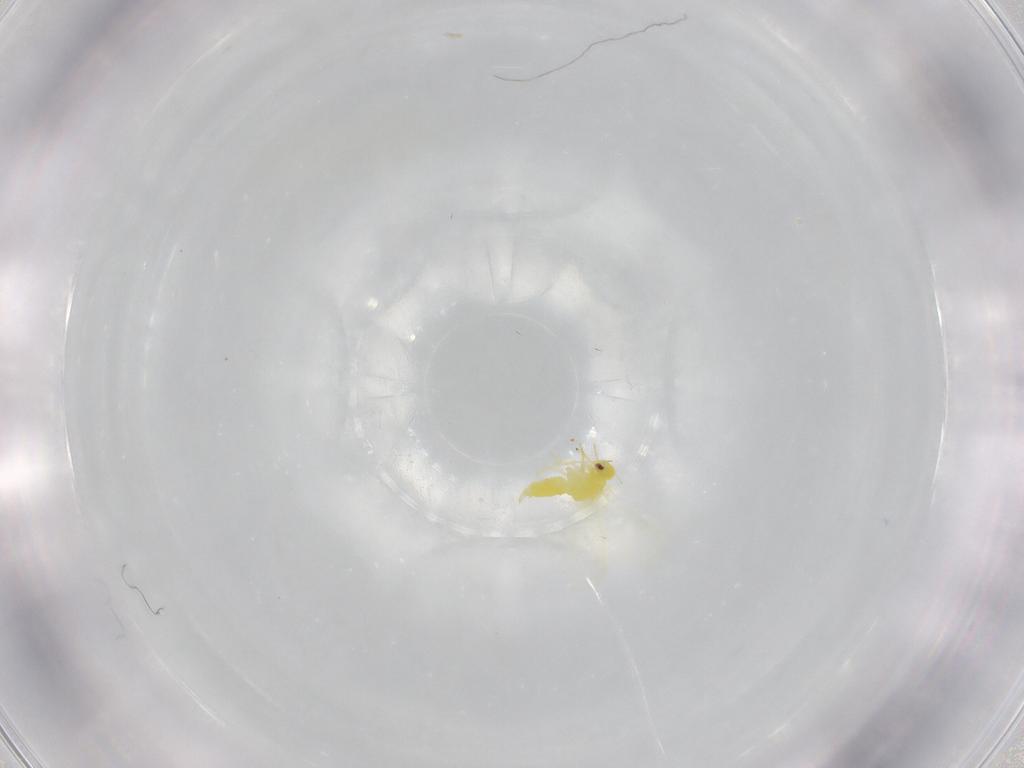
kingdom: Animalia
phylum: Arthropoda
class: Insecta
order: Hemiptera
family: Aleyrodidae
